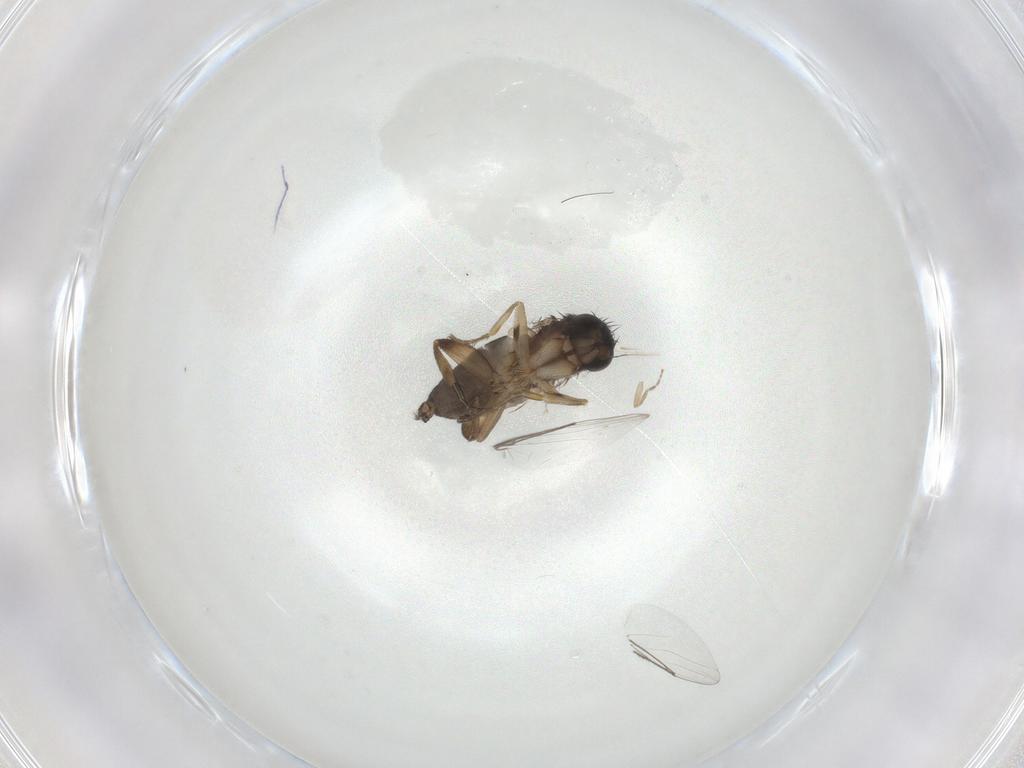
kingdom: Animalia
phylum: Arthropoda
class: Insecta
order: Diptera
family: Phoridae
